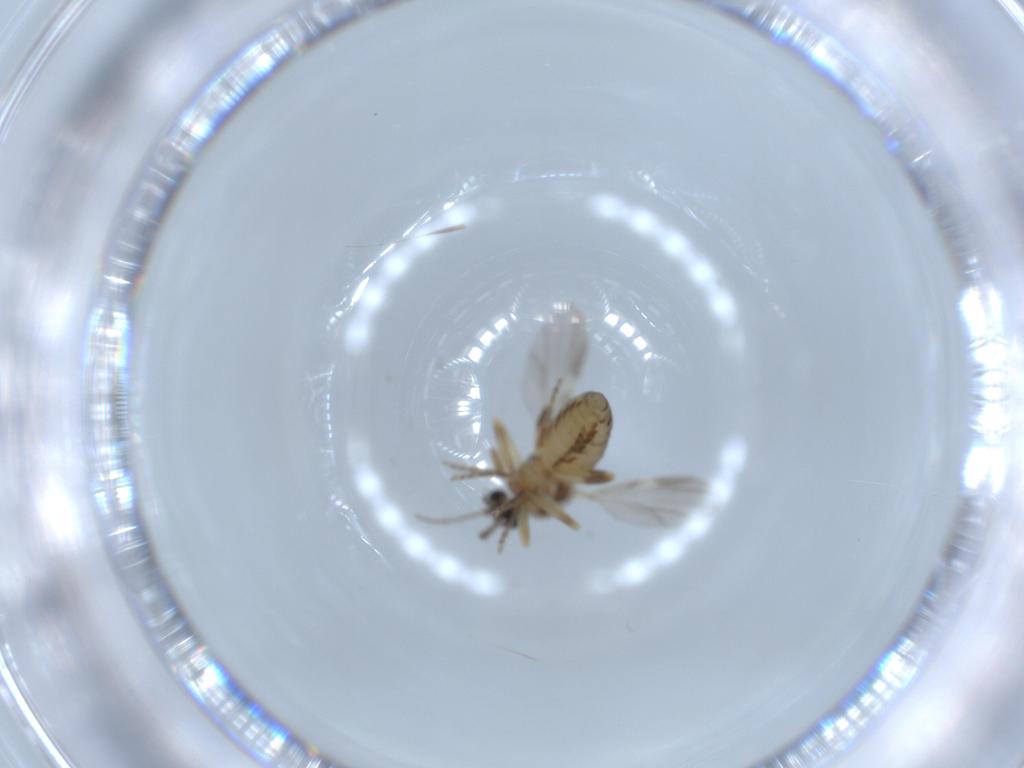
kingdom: Animalia
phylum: Arthropoda
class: Insecta
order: Diptera
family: Ceratopogonidae
